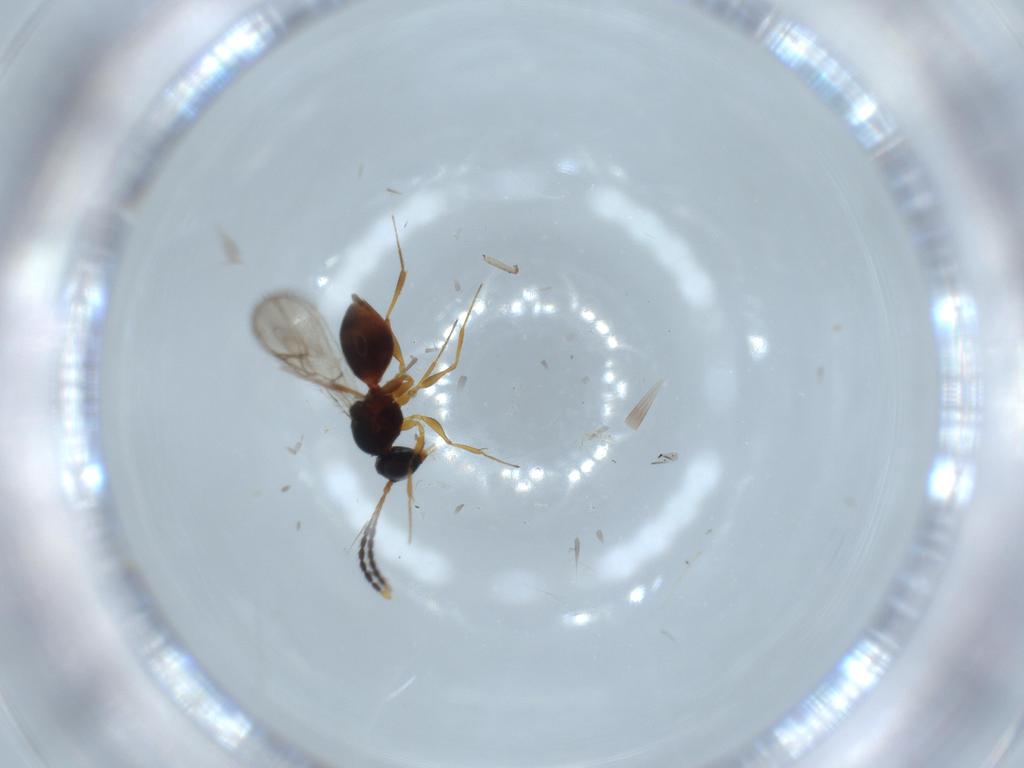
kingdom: Animalia
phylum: Arthropoda
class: Insecta
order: Hymenoptera
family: Figitidae
